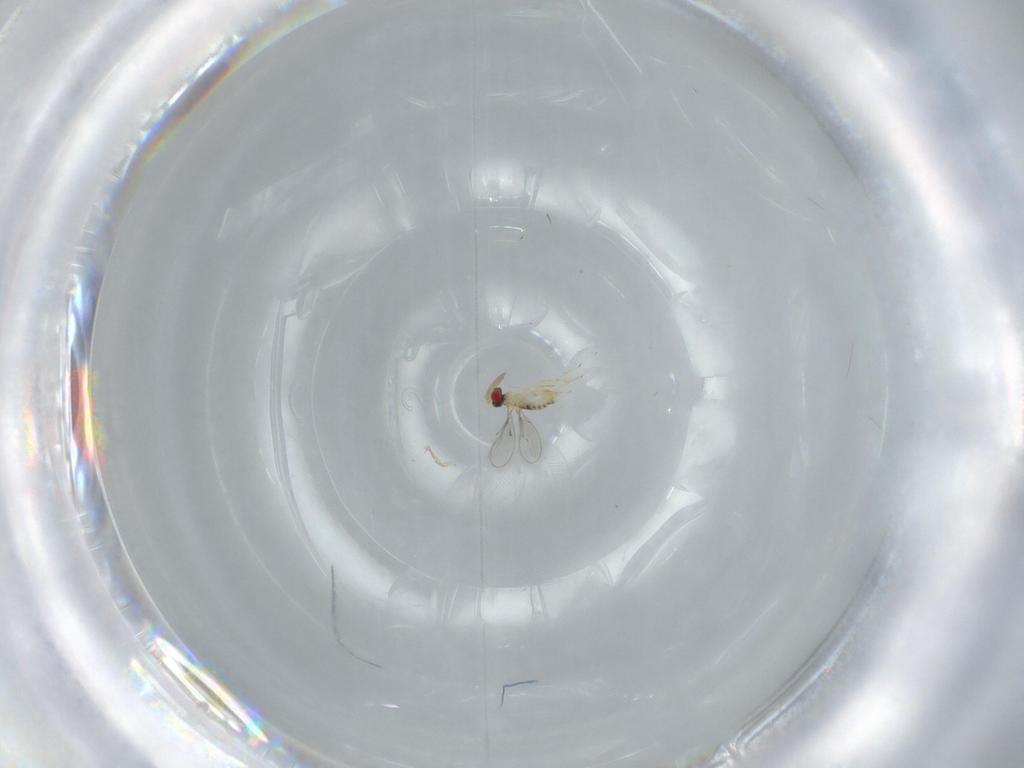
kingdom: Animalia
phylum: Arthropoda
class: Insecta
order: Hymenoptera
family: Aphelinidae
